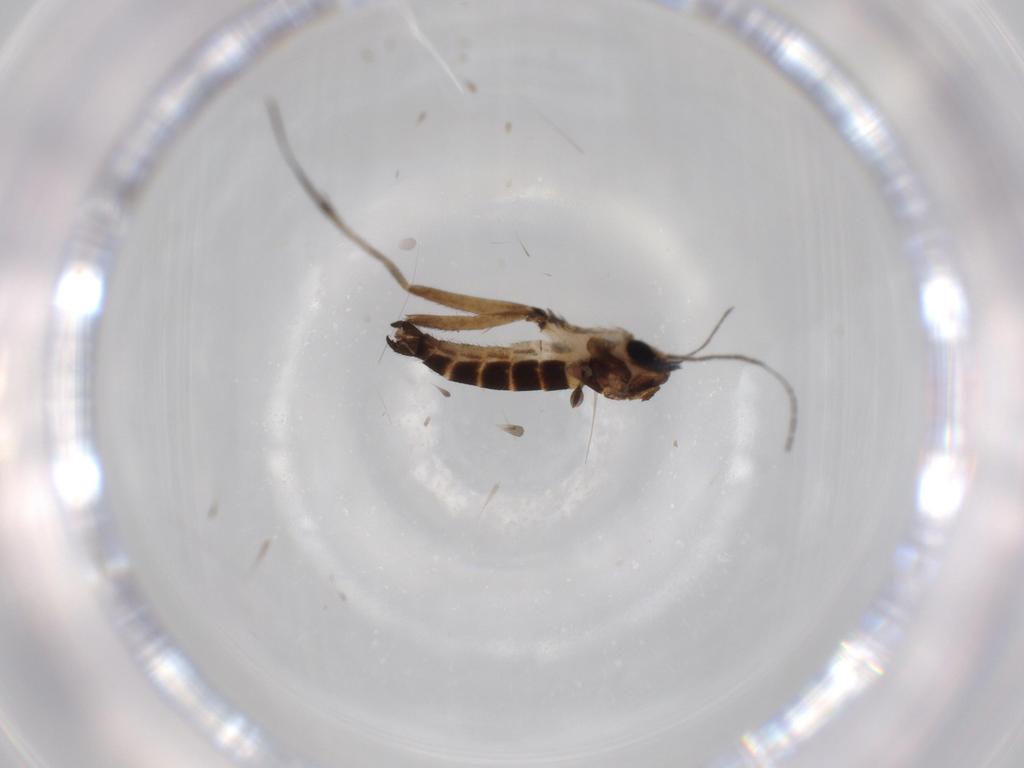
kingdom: Animalia
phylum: Arthropoda
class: Insecta
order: Diptera
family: Sciaridae
